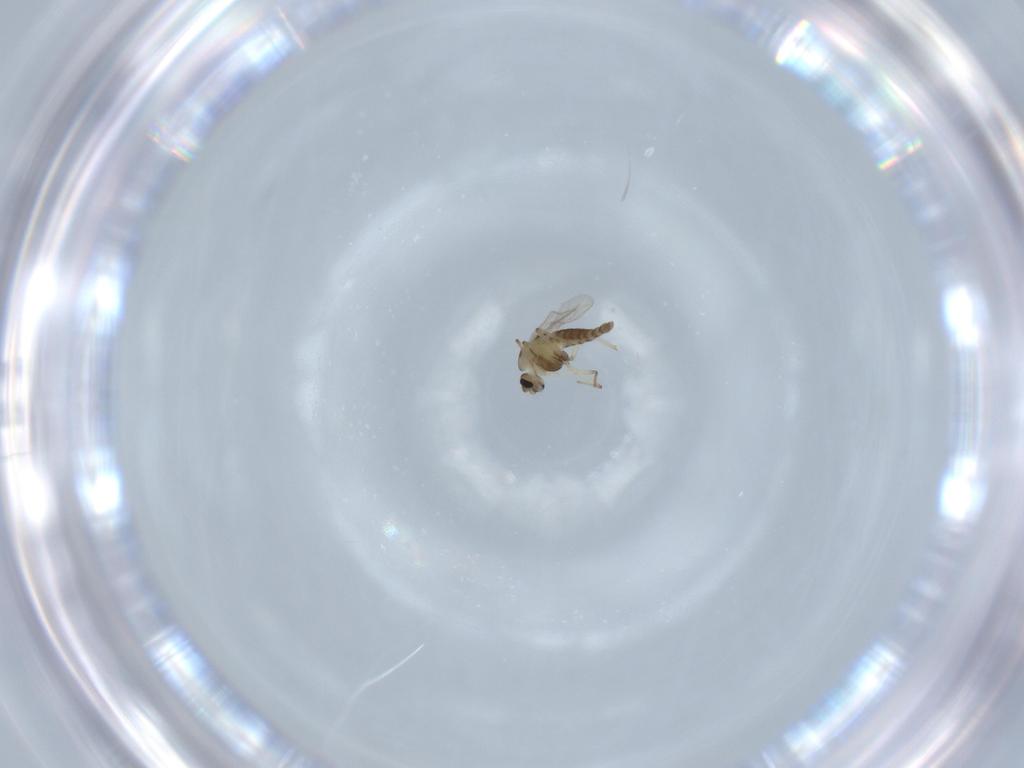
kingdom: Animalia
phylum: Arthropoda
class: Insecta
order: Diptera
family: Chironomidae
